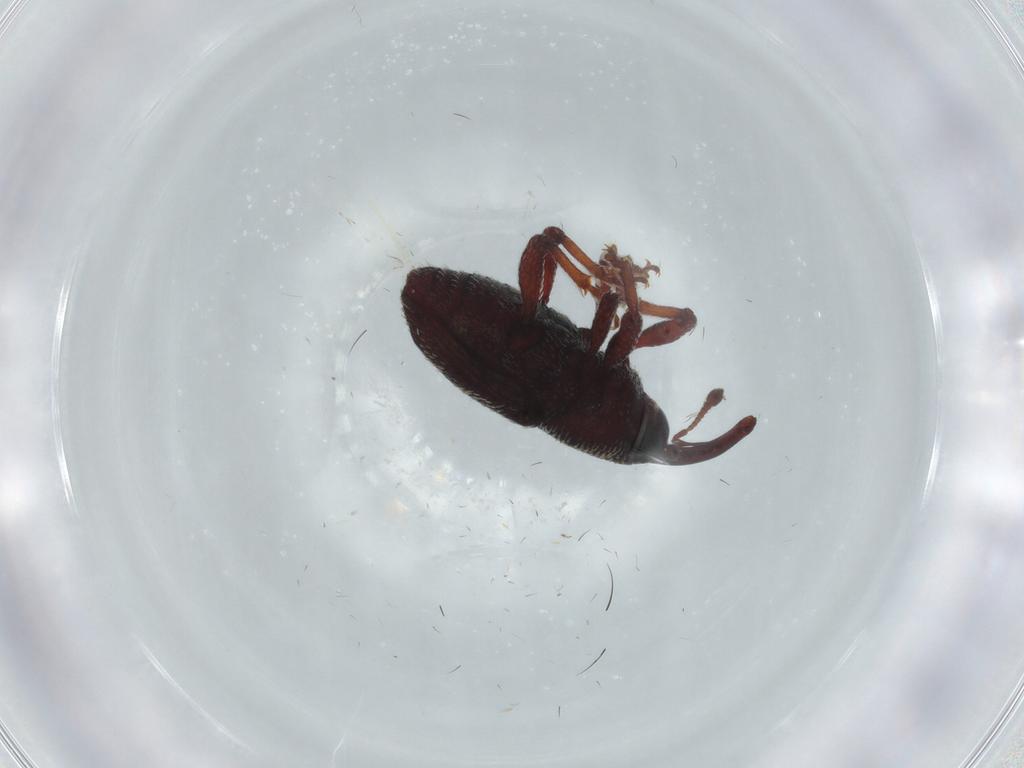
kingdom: Animalia
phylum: Arthropoda
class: Insecta
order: Coleoptera
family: Curculionidae
